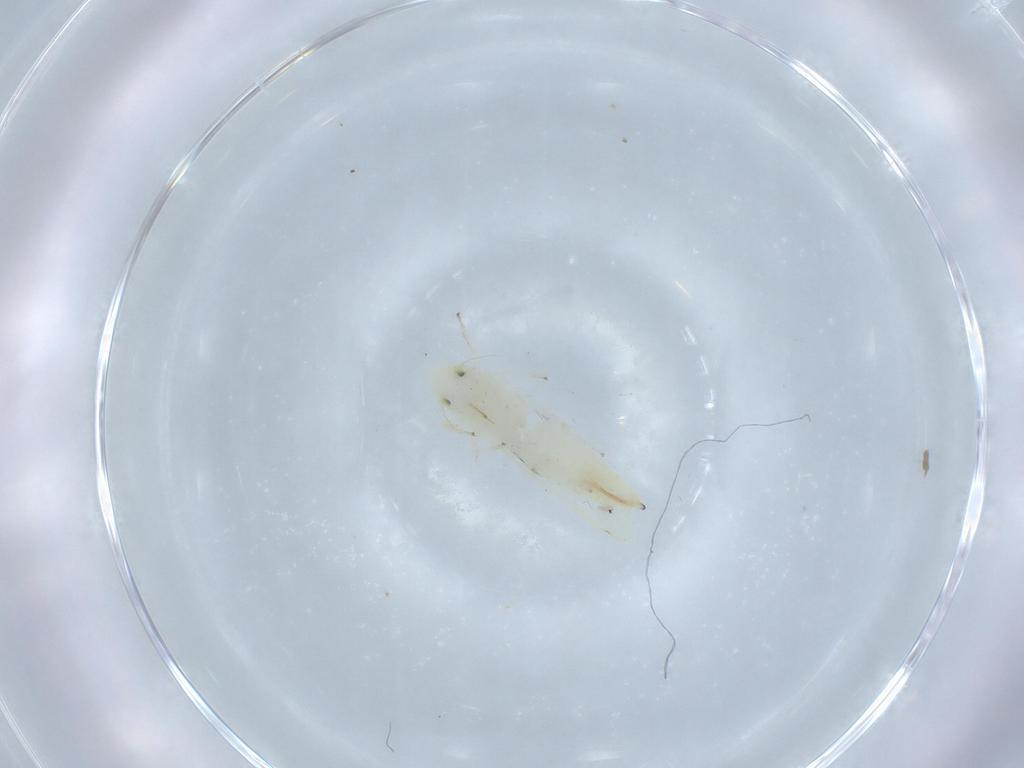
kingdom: Animalia
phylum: Arthropoda
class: Insecta
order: Hemiptera
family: Cicadellidae
